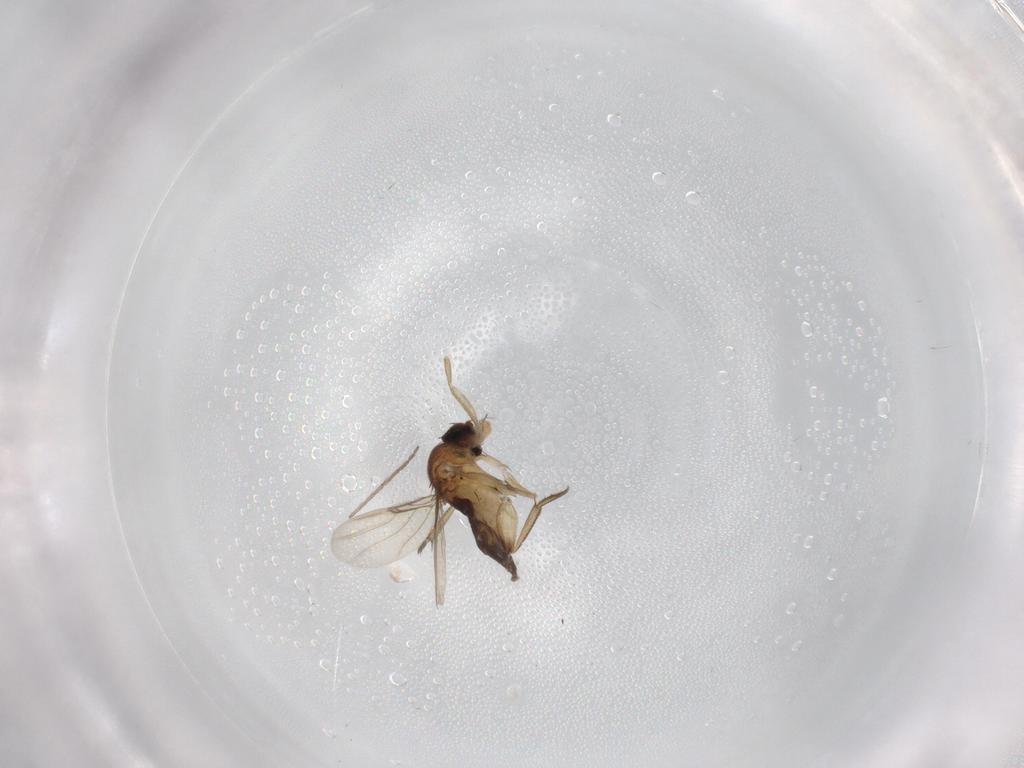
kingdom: Animalia
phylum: Arthropoda
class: Insecta
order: Diptera
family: Phoridae
